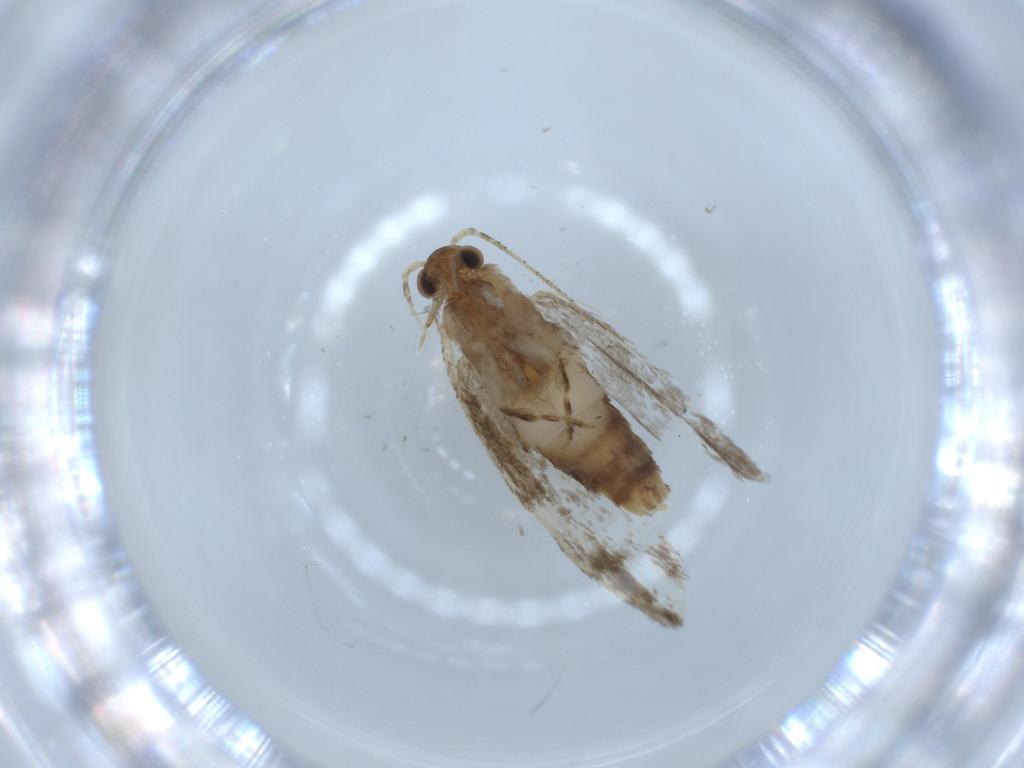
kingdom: Animalia
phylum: Arthropoda
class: Insecta
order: Lepidoptera
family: Tineidae
